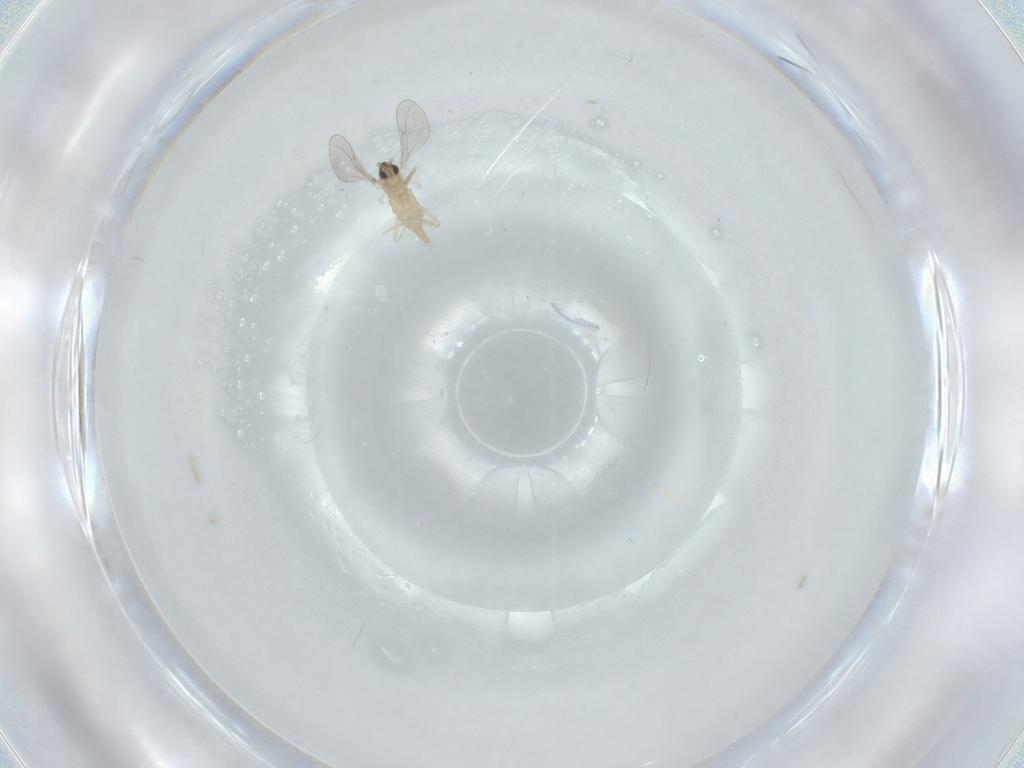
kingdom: Animalia
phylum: Arthropoda
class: Insecta
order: Diptera
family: Cecidomyiidae
